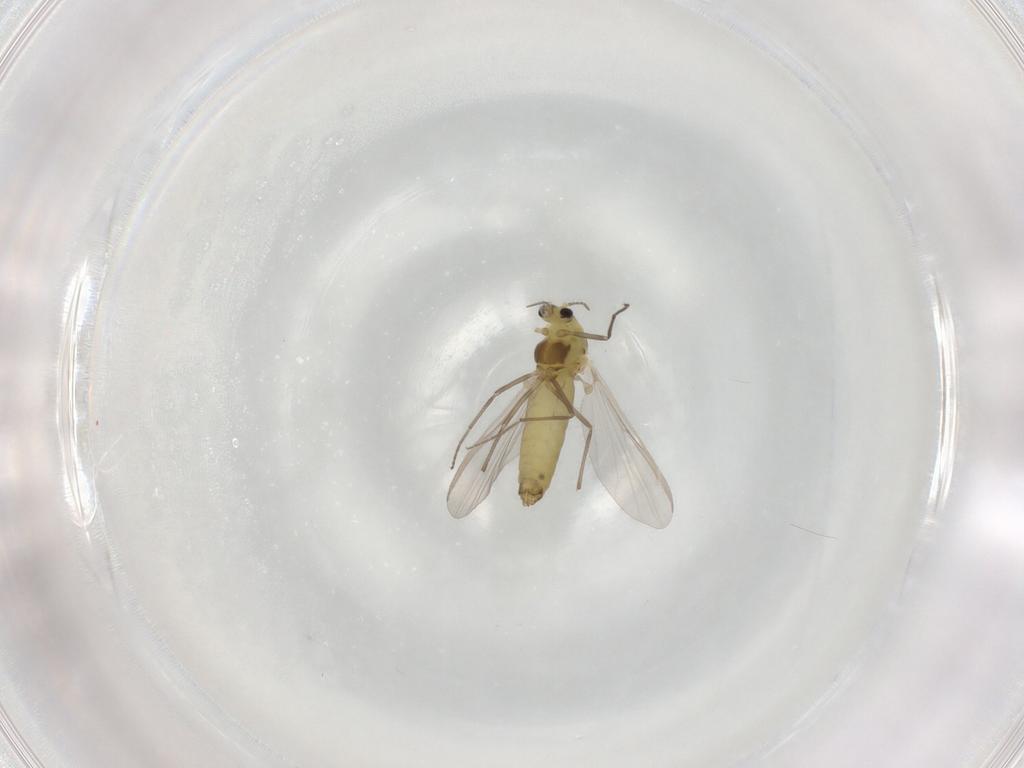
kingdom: Animalia
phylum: Arthropoda
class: Insecta
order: Diptera
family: Chironomidae
